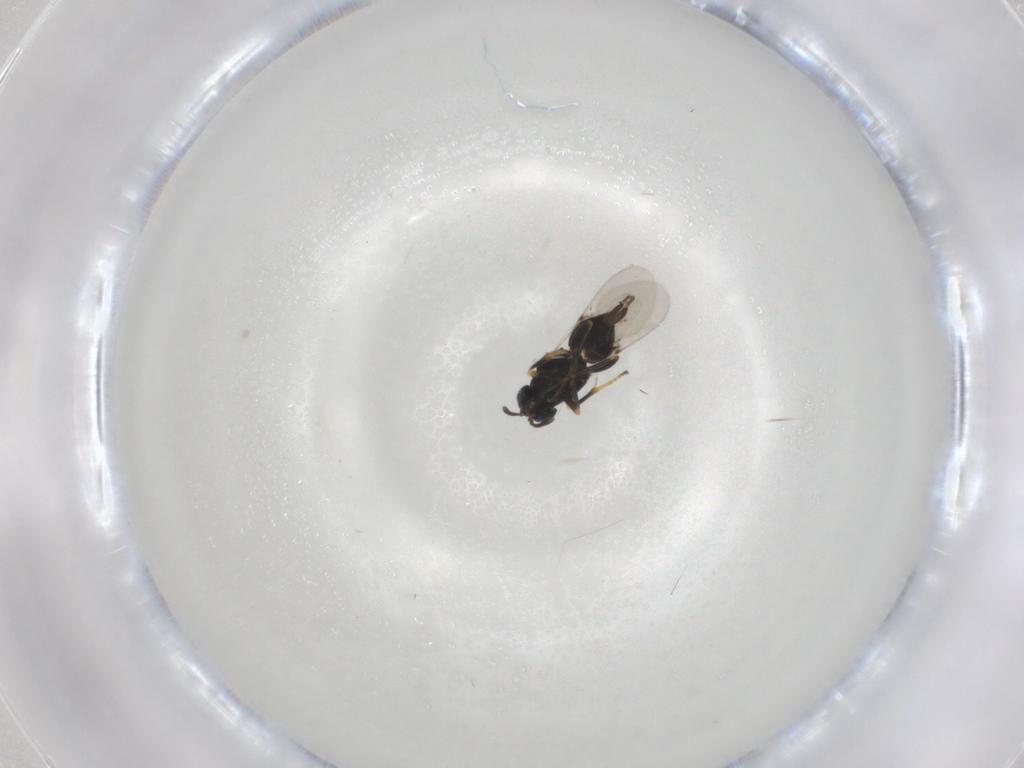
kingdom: Animalia
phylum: Arthropoda
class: Insecta
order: Hymenoptera
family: Encyrtidae
